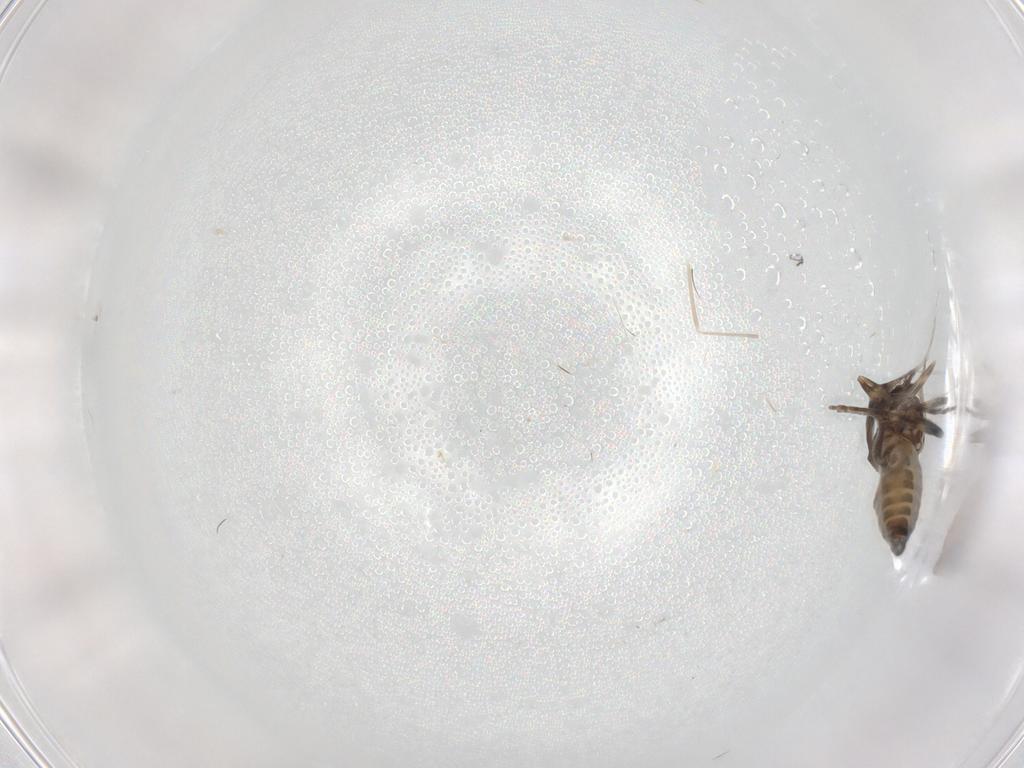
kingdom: Animalia
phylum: Arthropoda
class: Insecta
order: Diptera
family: Ceratopogonidae
